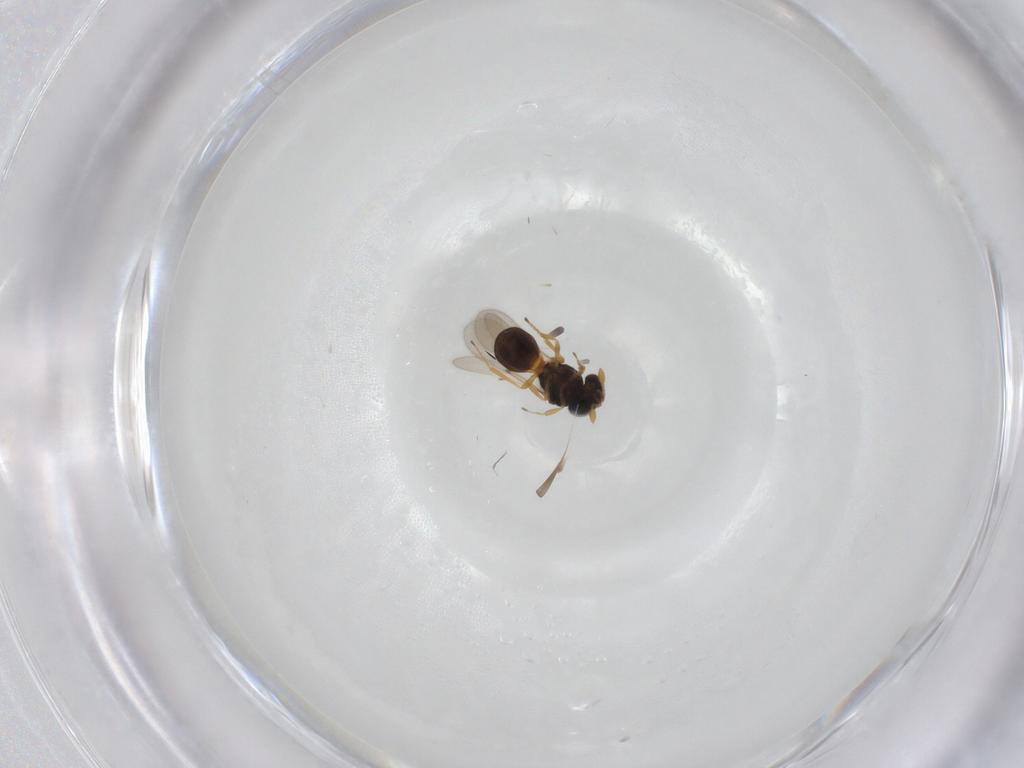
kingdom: Animalia
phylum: Arthropoda
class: Insecta
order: Hymenoptera
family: Scelionidae
